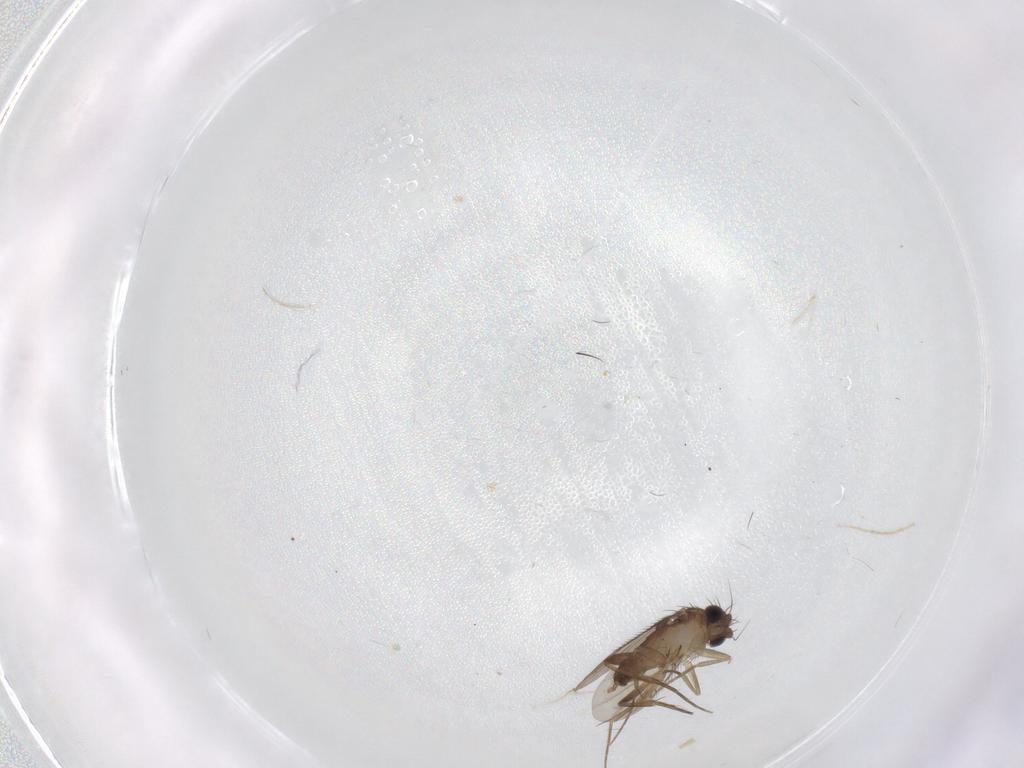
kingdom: Animalia
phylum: Arthropoda
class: Insecta
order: Diptera
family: Phoridae
